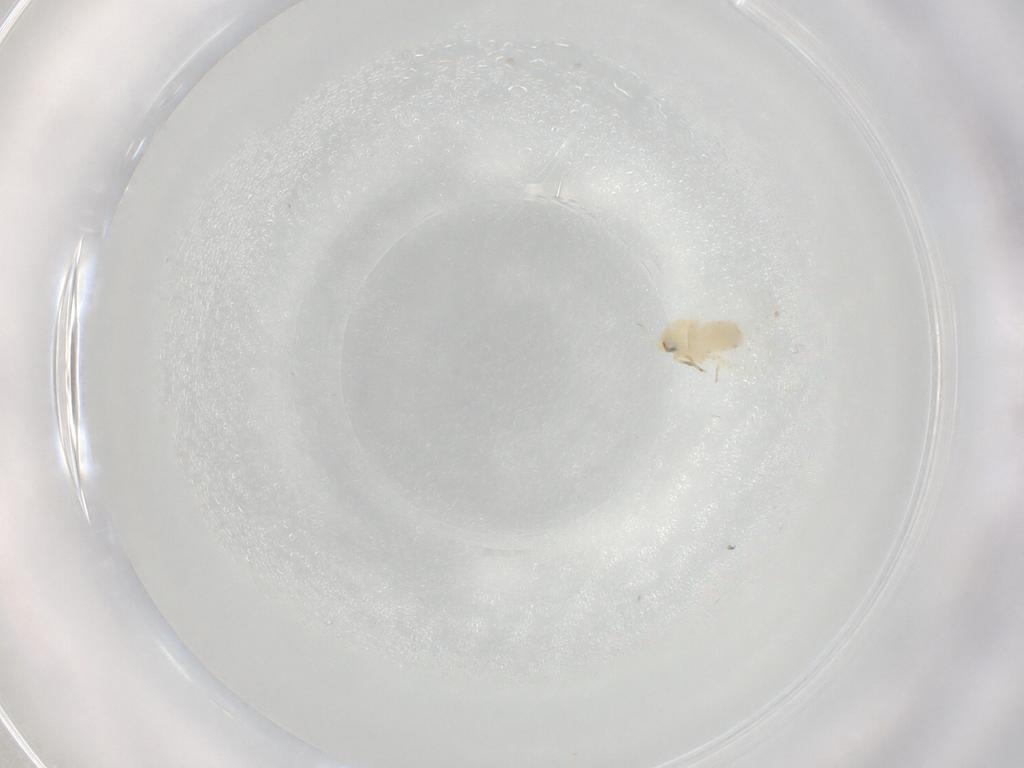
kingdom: Animalia
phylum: Arthropoda
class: Insecta
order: Hemiptera
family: Aleyrodidae
